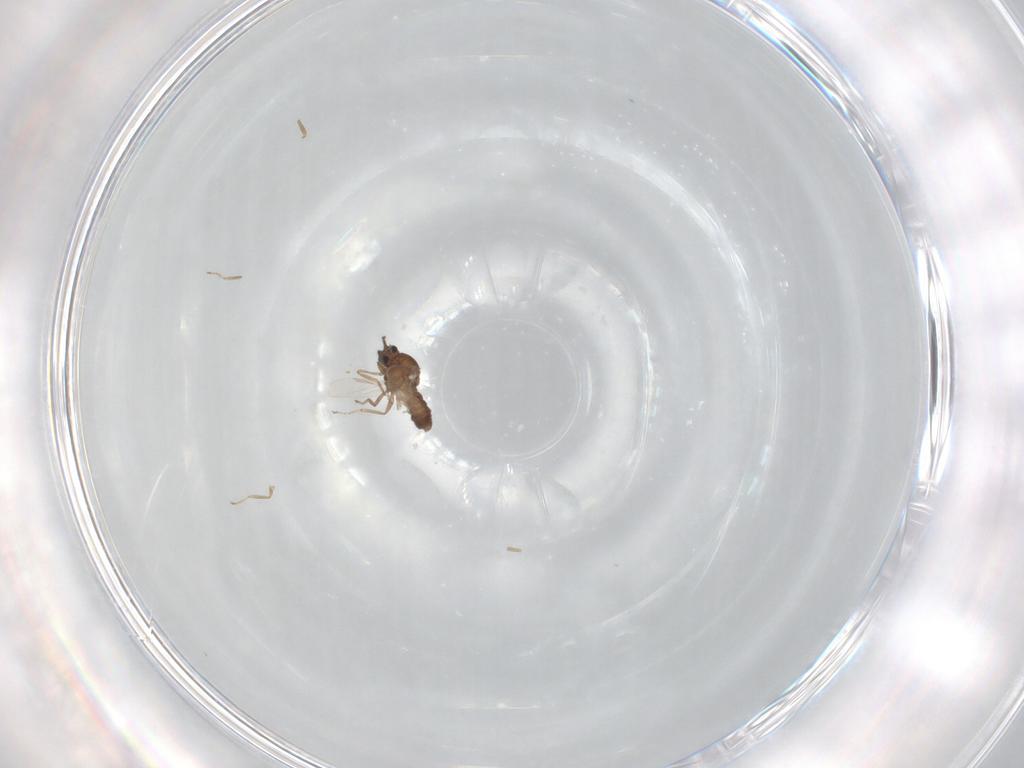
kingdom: Animalia
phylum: Arthropoda
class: Insecta
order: Diptera
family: Ceratopogonidae
